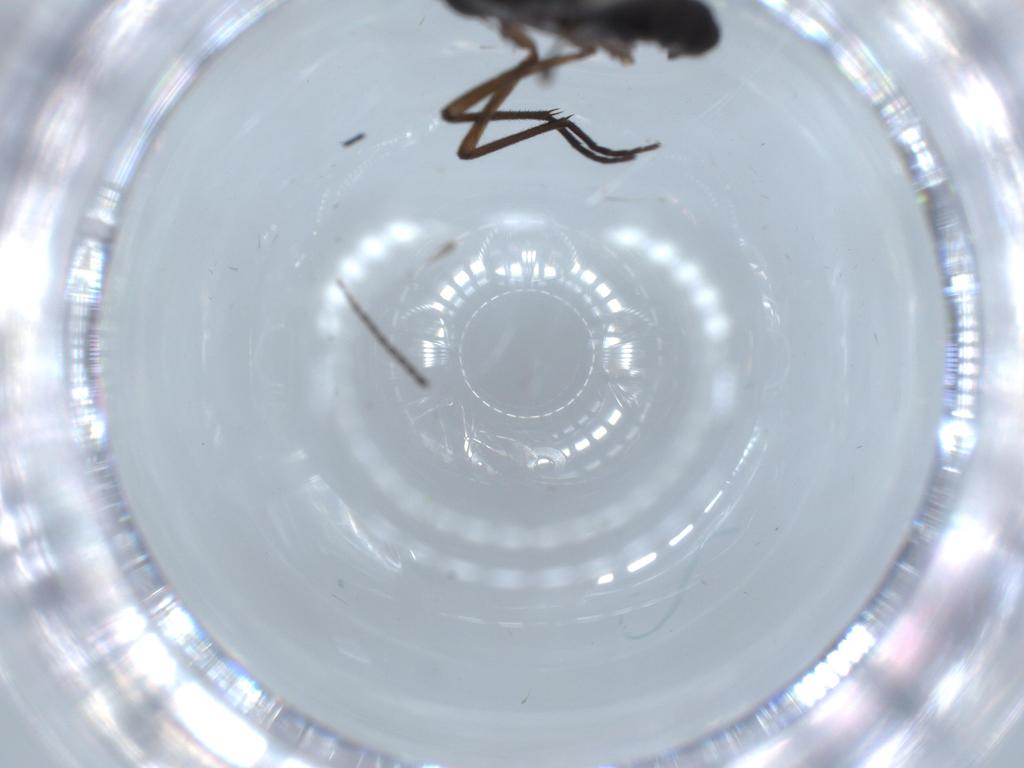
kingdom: Animalia
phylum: Arthropoda
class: Insecta
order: Diptera
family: Sciaridae
